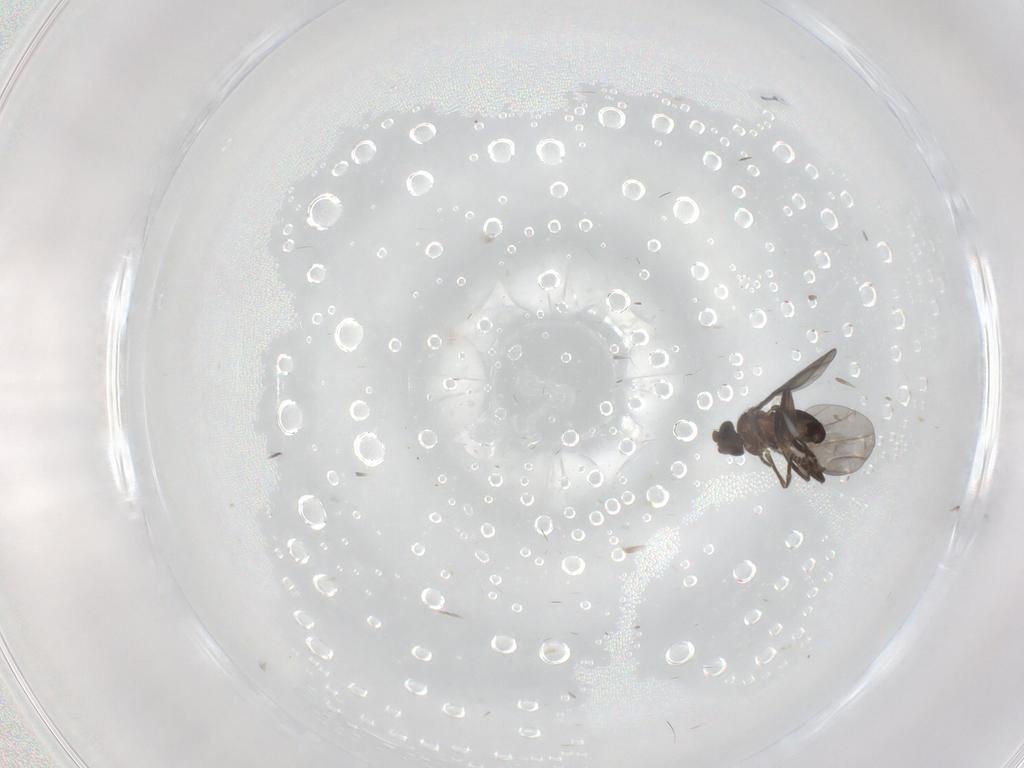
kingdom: Animalia
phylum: Arthropoda
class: Insecta
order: Diptera
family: Phoridae
